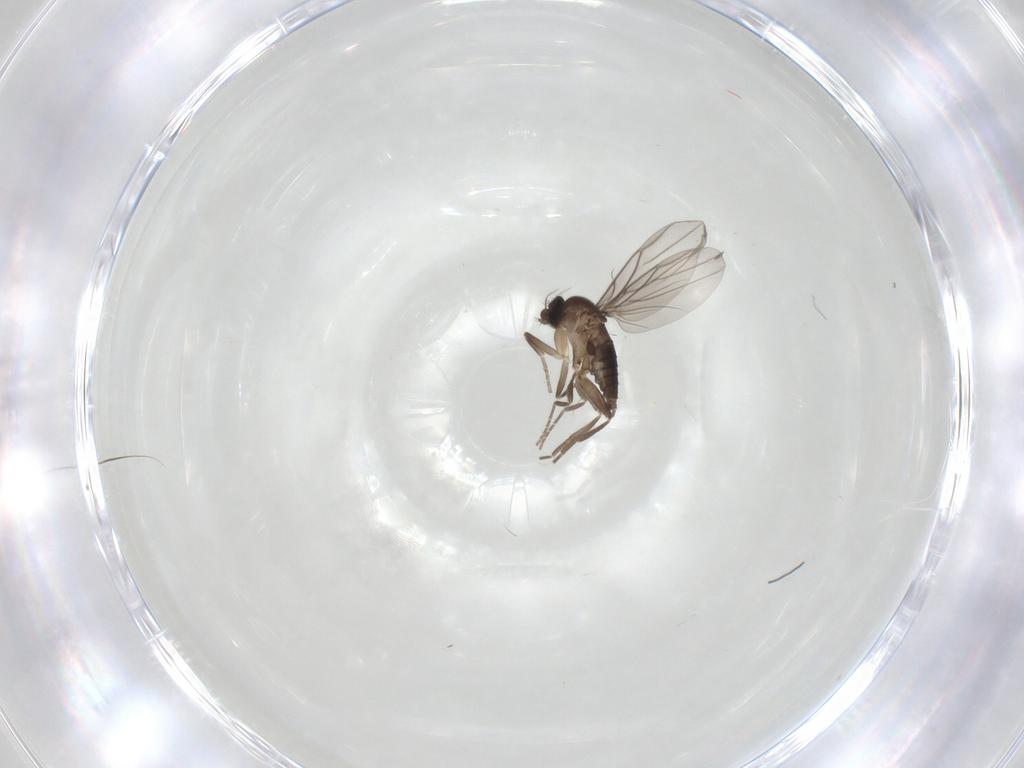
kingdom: Animalia
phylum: Arthropoda
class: Insecta
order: Diptera
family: Phoridae
